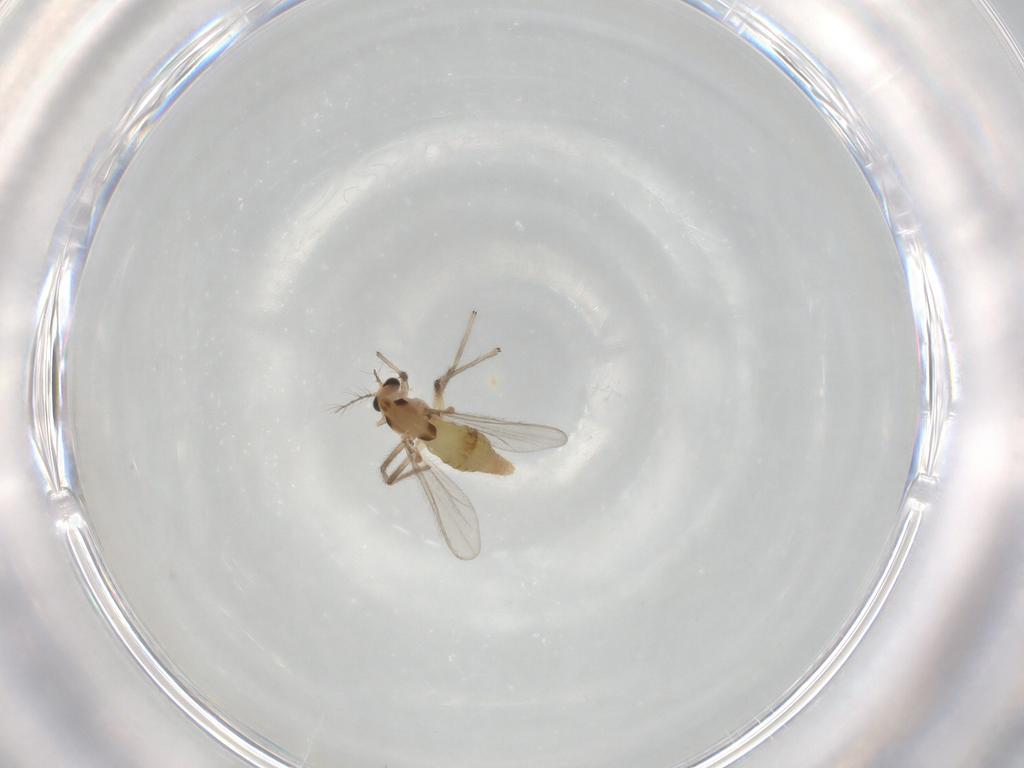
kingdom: Animalia
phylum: Arthropoda
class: Insecta
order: Diptera
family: Chironomidae
